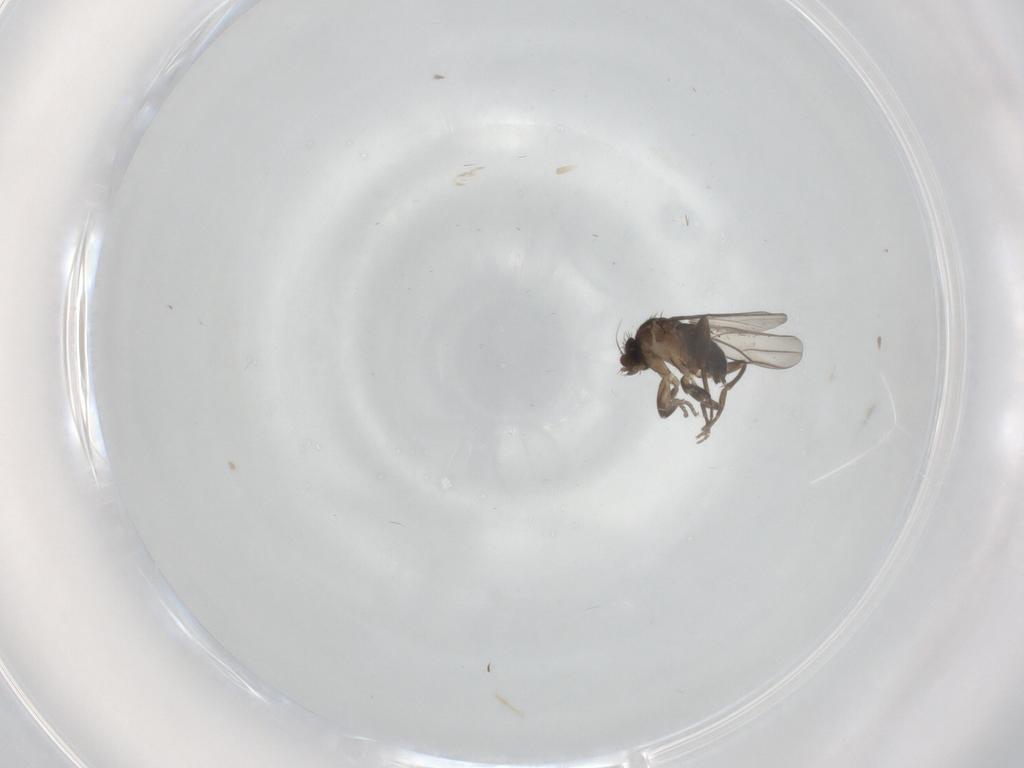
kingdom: Animalia
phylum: Arthropoda
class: Insecta
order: Diptera
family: Phoridae
